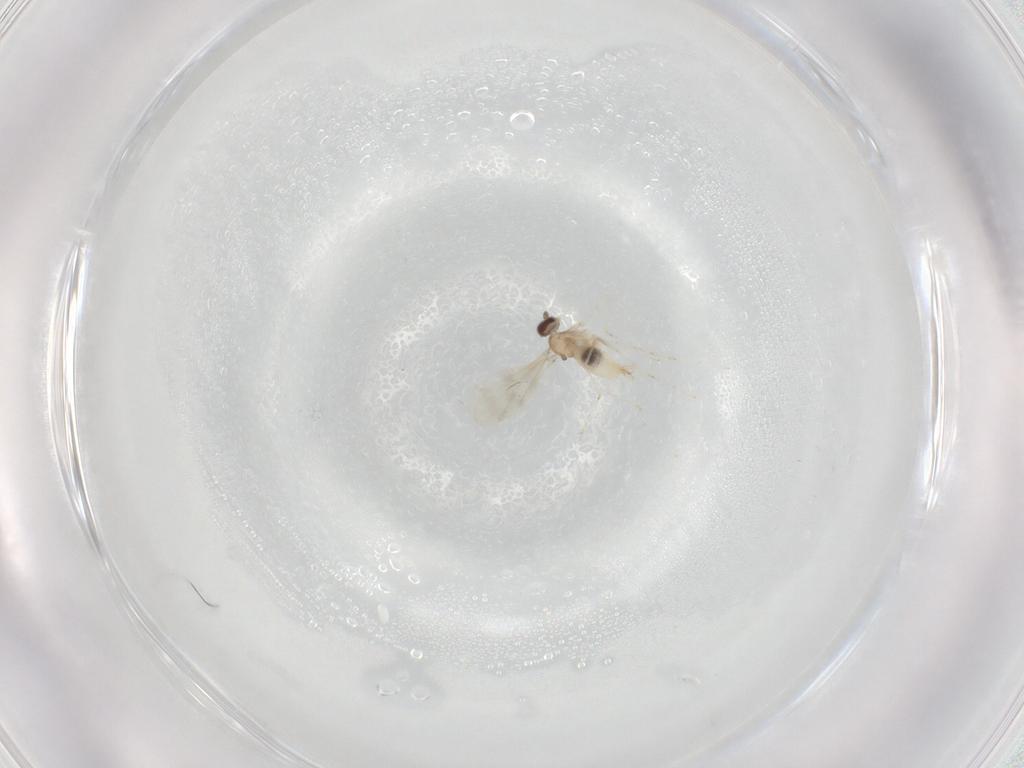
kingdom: Animalia
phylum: Arthropoda
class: Insecta
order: Diptera
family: Cecidomyiidae
